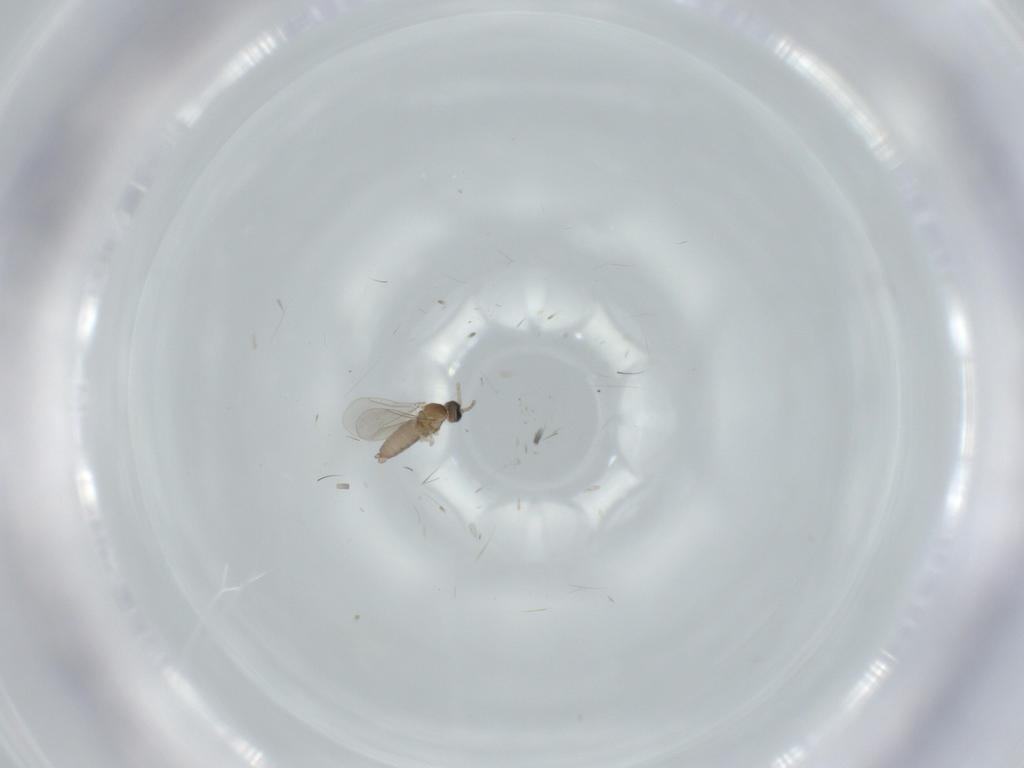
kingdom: Animalia
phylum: Arthropoda
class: Insecta
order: Diptera
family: Cecidomyiidae
